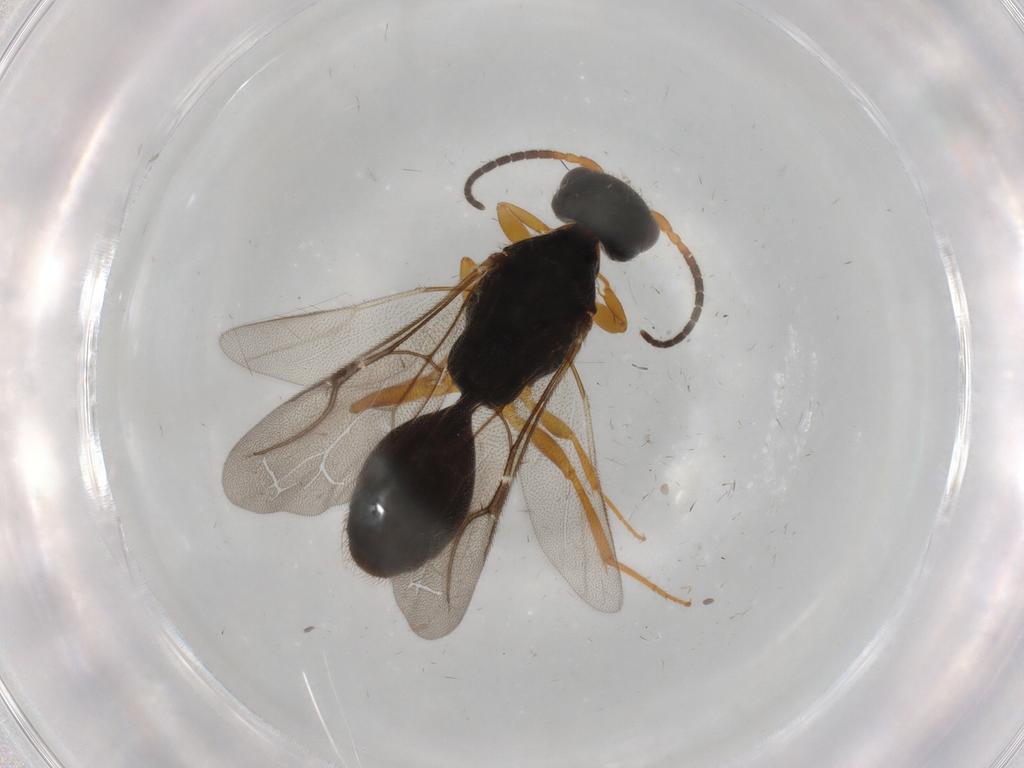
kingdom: Animalia
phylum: Arthropoda
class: Insecta
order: Hymenoptera
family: Bethylidae
